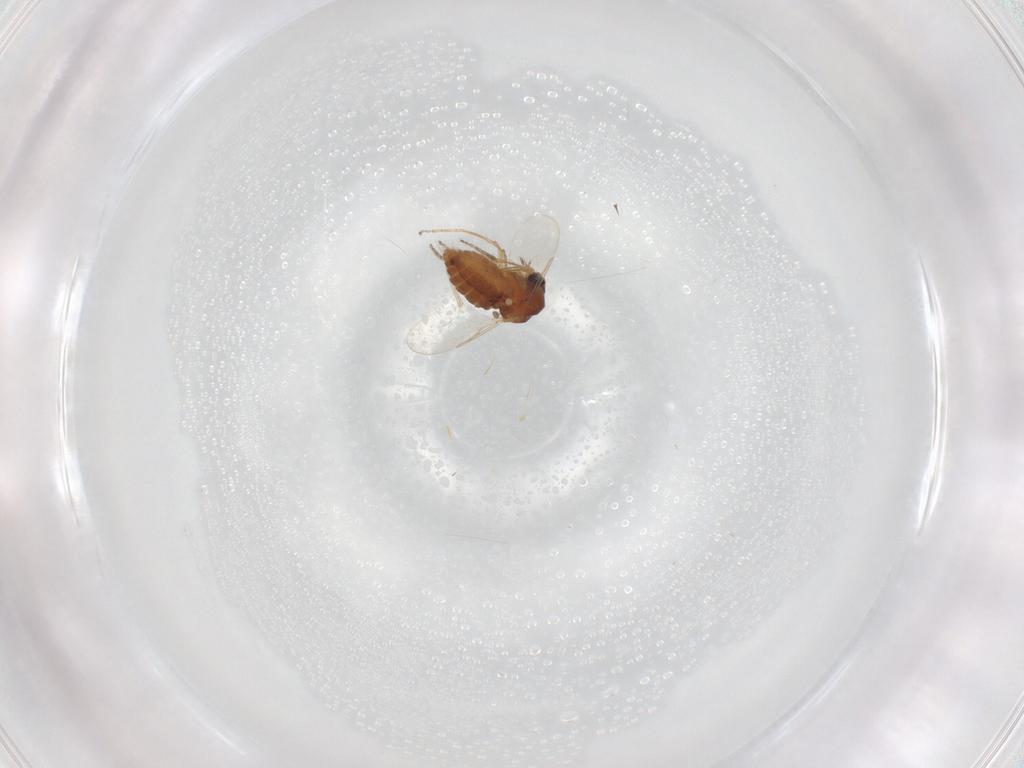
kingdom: Animalia
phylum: Arthropoda
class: Insecta
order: Diptera
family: Ceratopogonidae
